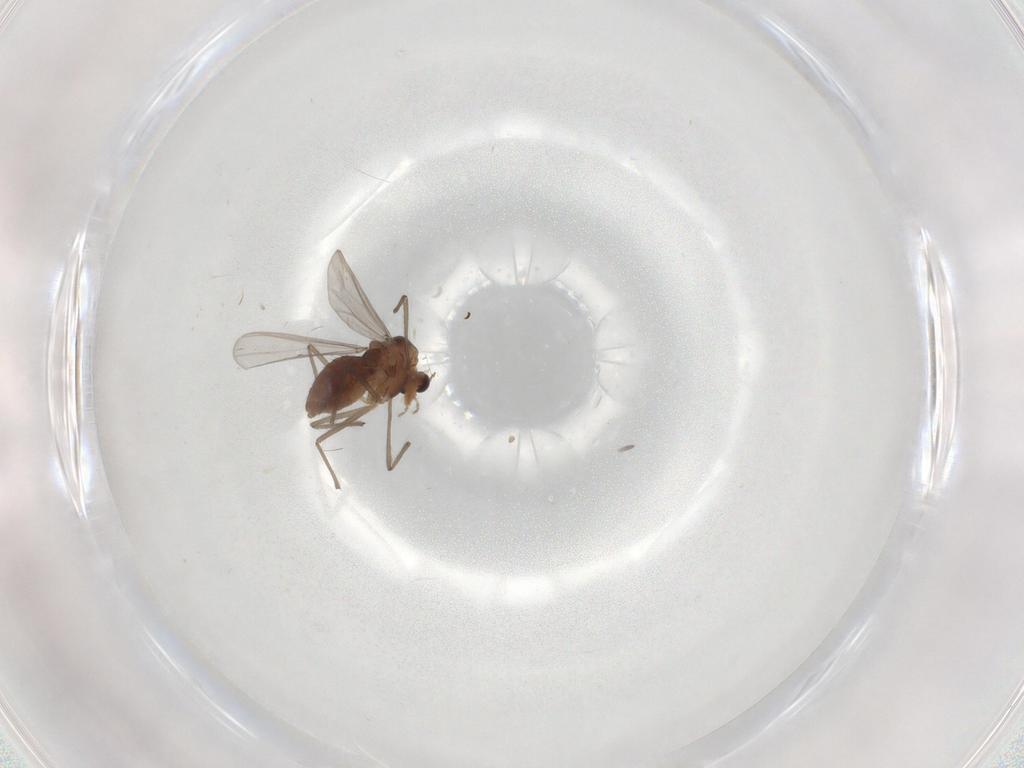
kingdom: Animalia
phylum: Arthropoda
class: Insecta
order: Diptera
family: Chironomidae
